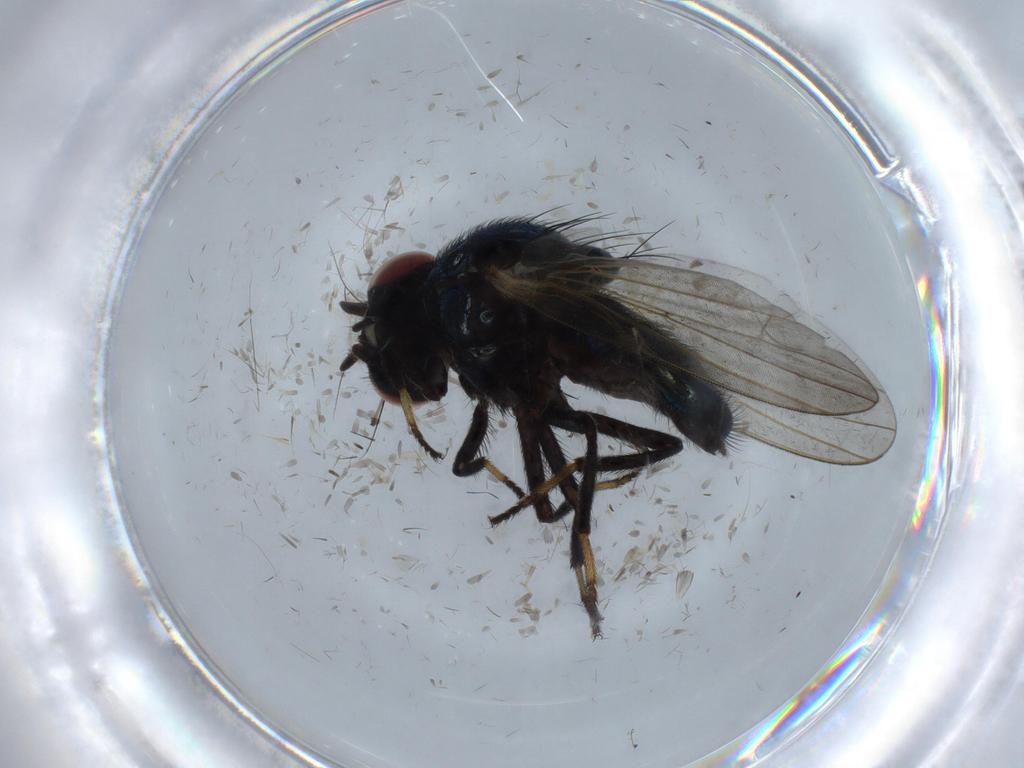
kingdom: Animalia
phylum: Arthropoda
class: Insecta
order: Diptera
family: Lonchaeidae
